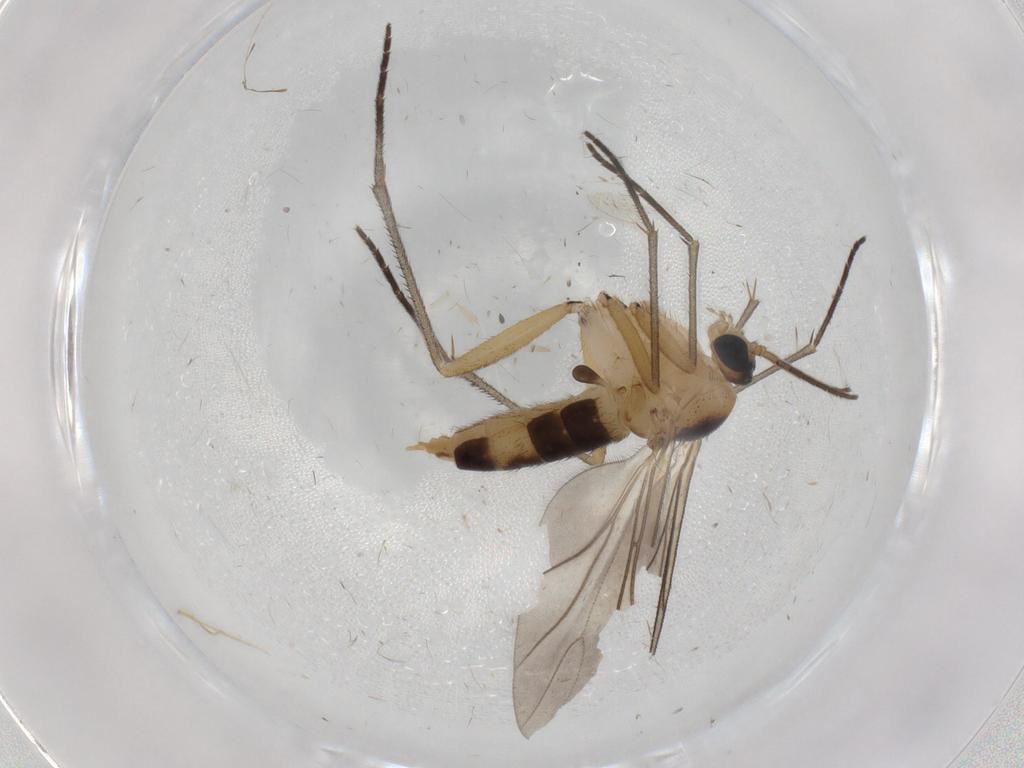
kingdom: Animalia
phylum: Arthropoda
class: Insecta
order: Diptera
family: Sciaridae
